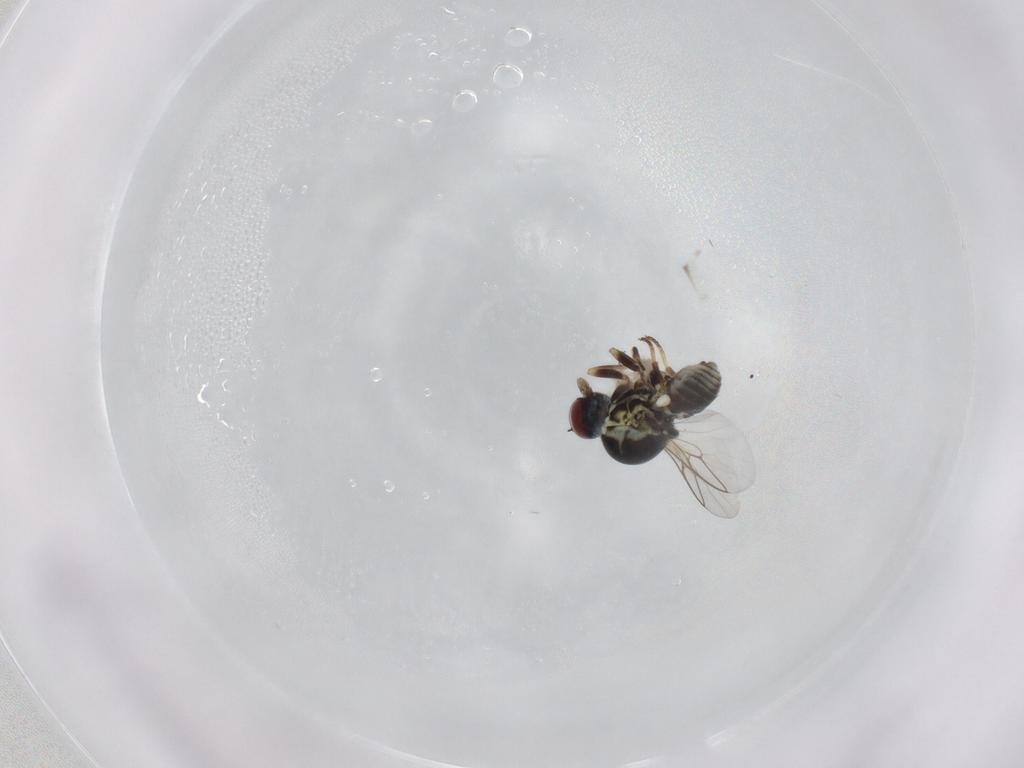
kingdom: Animalia
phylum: Arthropoda
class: Insecta
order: Diptera
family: Bombyliidae
